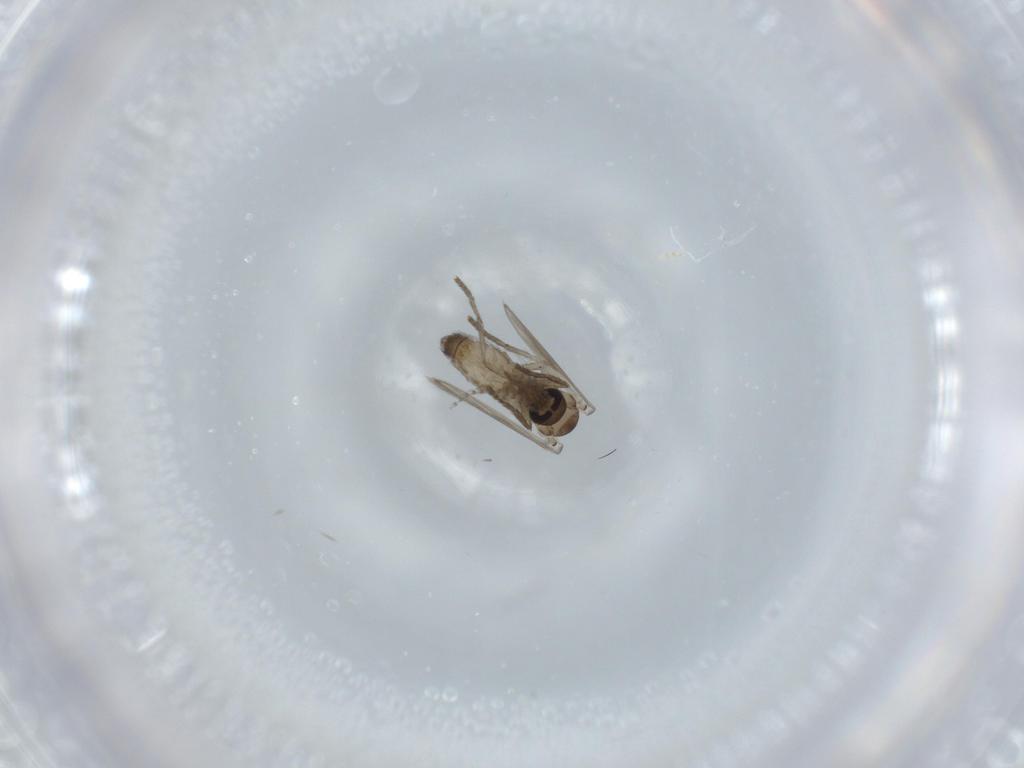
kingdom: Animalia
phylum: Arthropoda
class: Insecta
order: Diptera
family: Psychodidae
